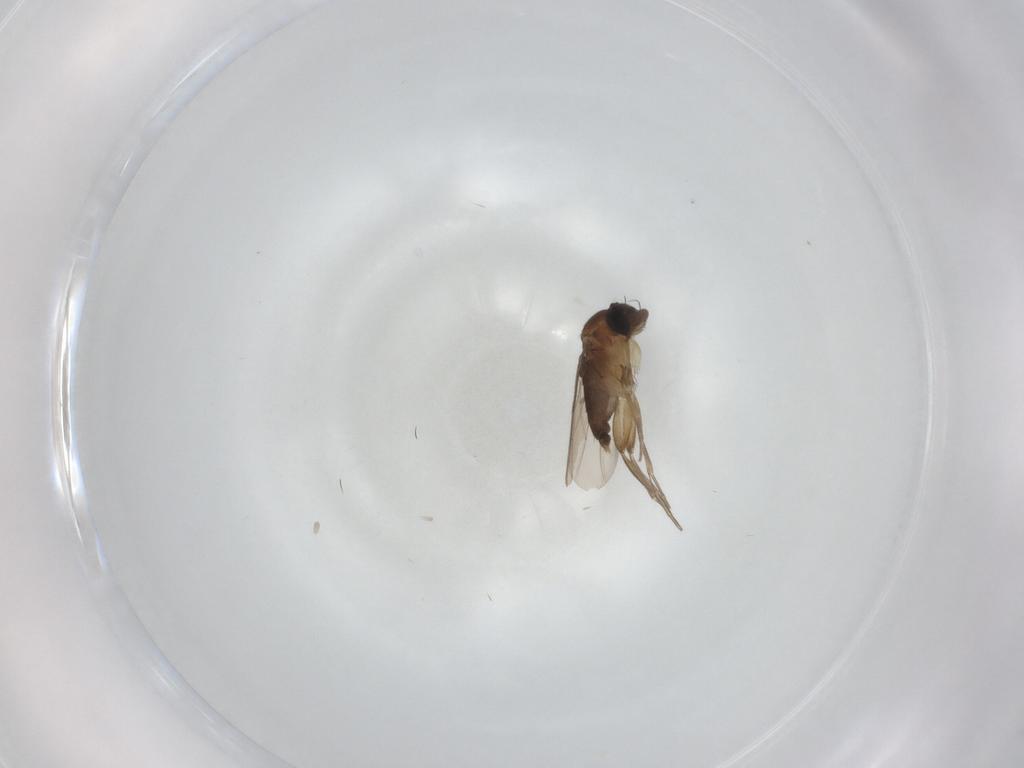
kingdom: Animalia
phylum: Arthropoda
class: Insecta
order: Diptera
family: Phoridae
